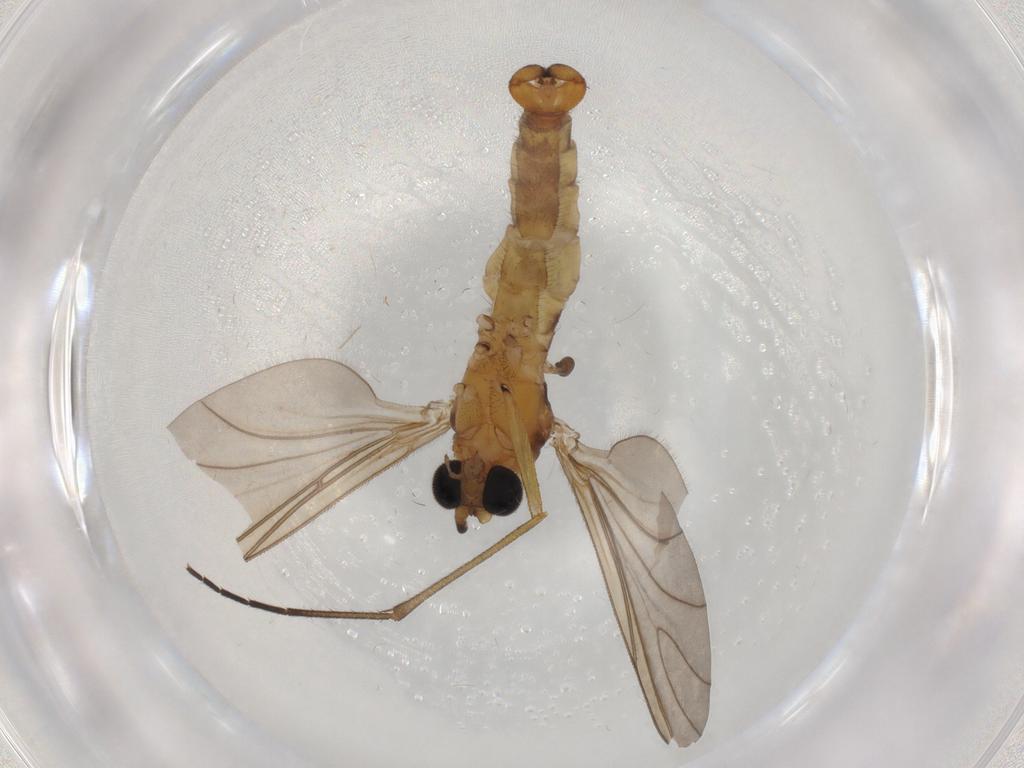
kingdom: Animalia
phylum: Arthropoda
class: Insecta
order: Diptera
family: Sciaridae
